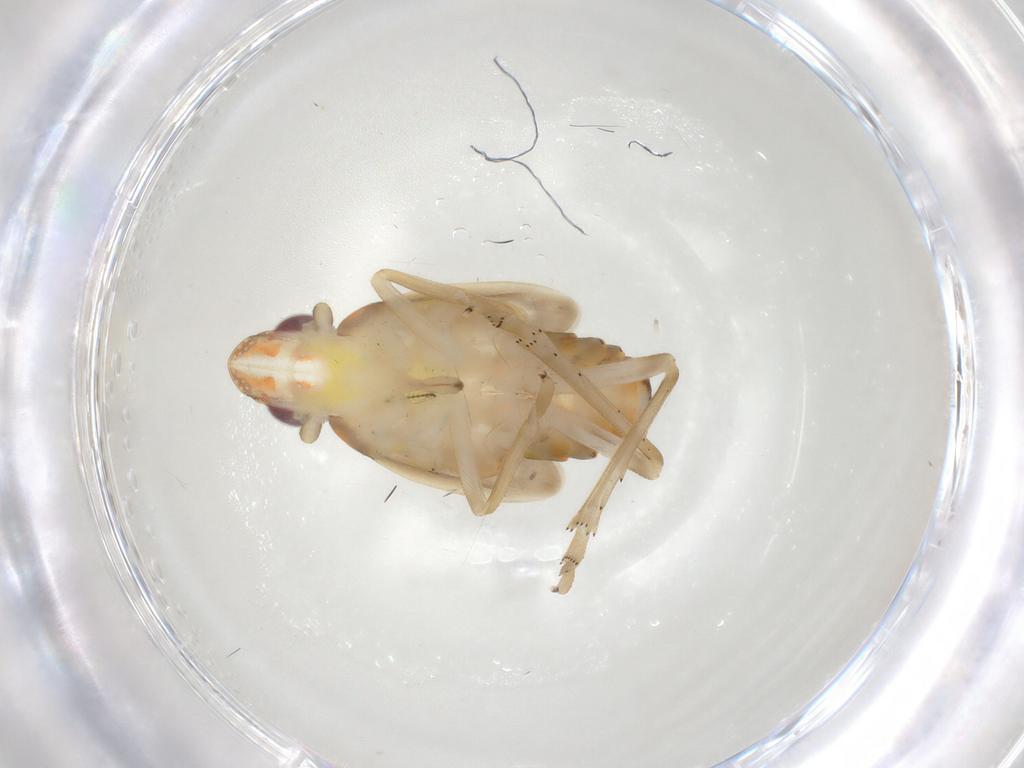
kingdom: Animalia
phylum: Arthropoda
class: Insecta
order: Hemiptera
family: Tropiduchidae
